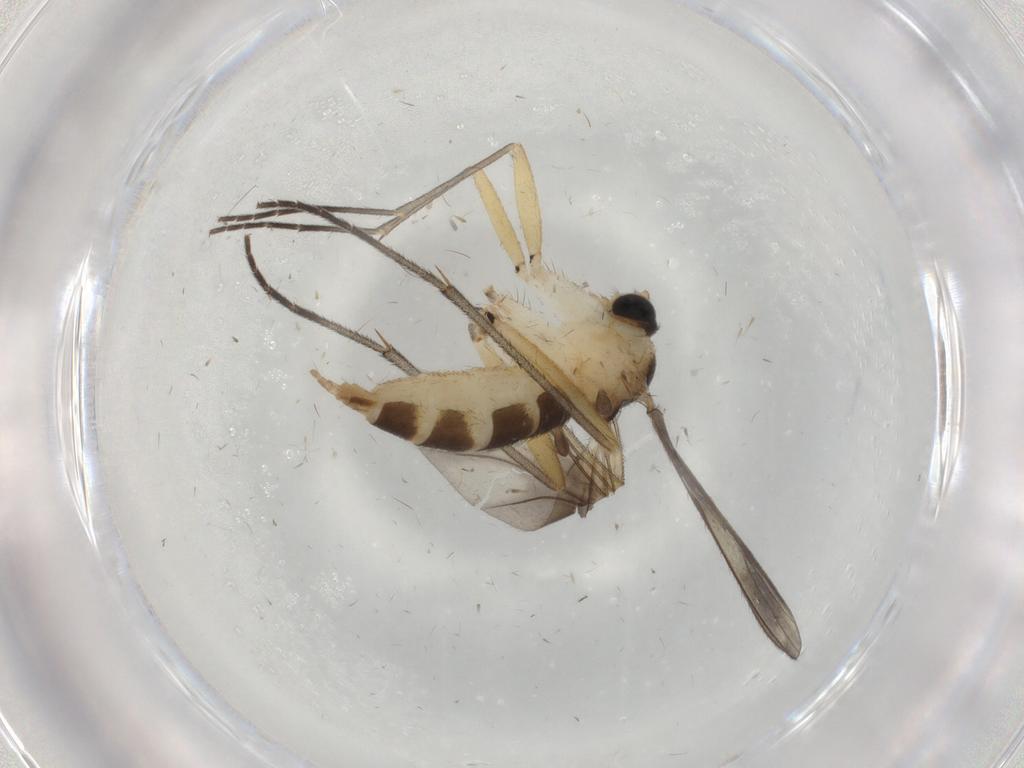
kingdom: Animalia
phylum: Arthropoda
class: Insecta
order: Diptera
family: Sciaridae
